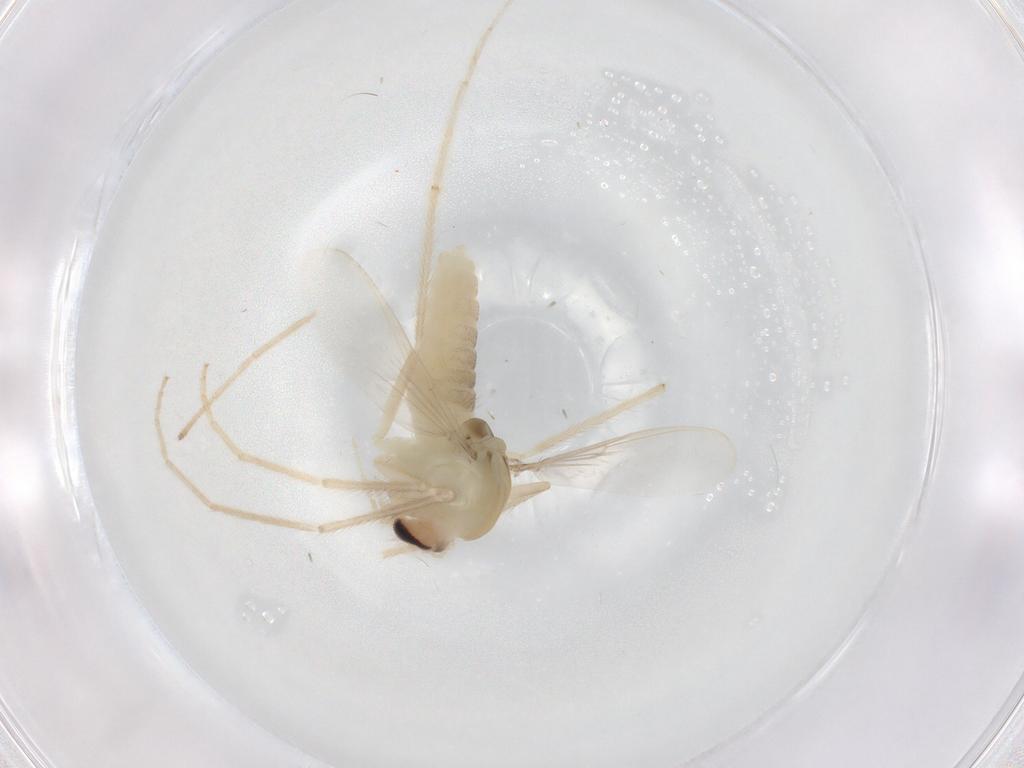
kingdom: Animalia
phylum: Arthropoda
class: Insecta
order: Diptera
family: Chironomidae
